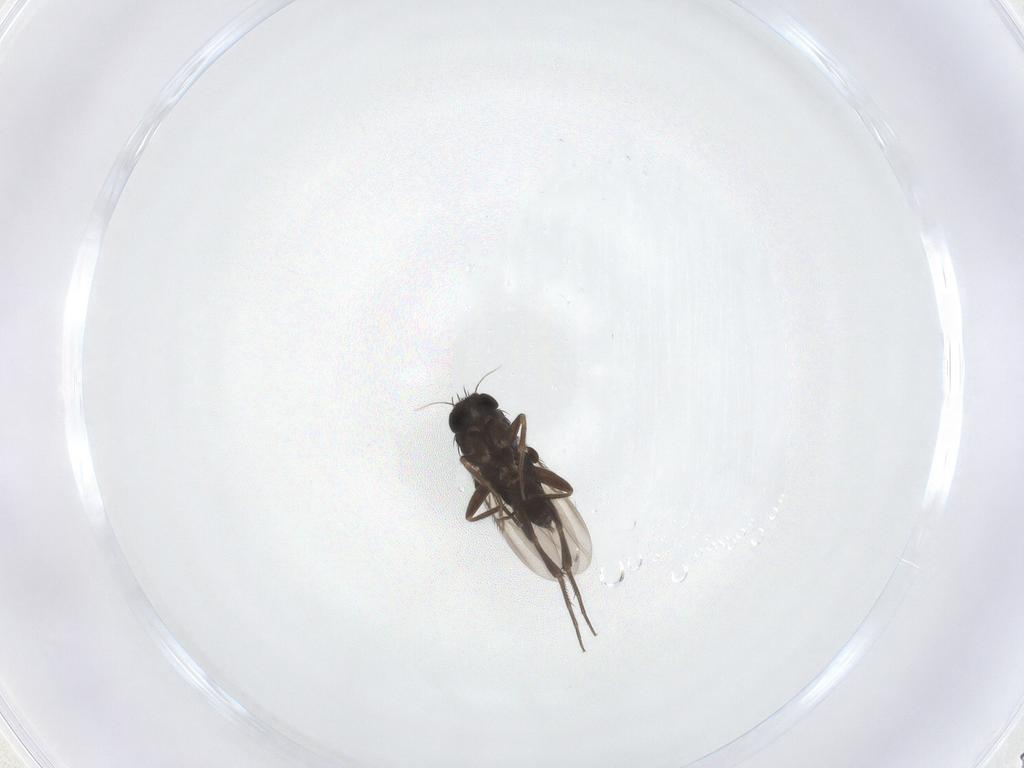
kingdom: Animalia
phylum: Arthropoda
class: Insecta
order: Diptera
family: Phoridae
